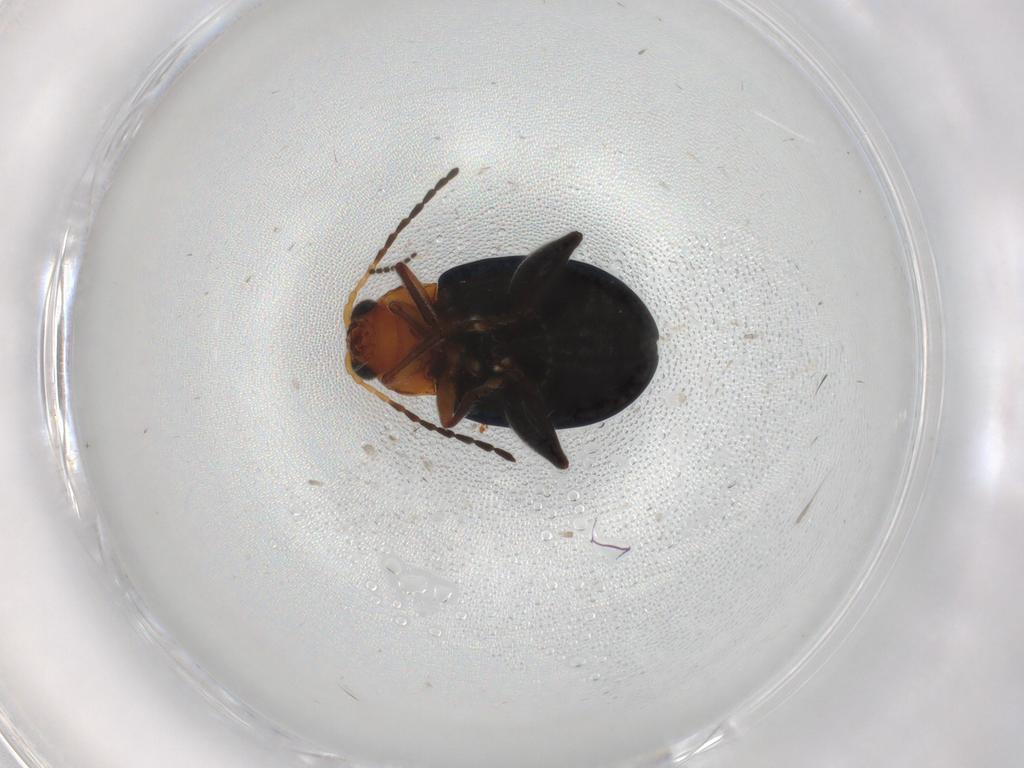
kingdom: Animalia
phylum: Arthropoda
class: Insecta
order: Coleoptera
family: Chrysomelidae
